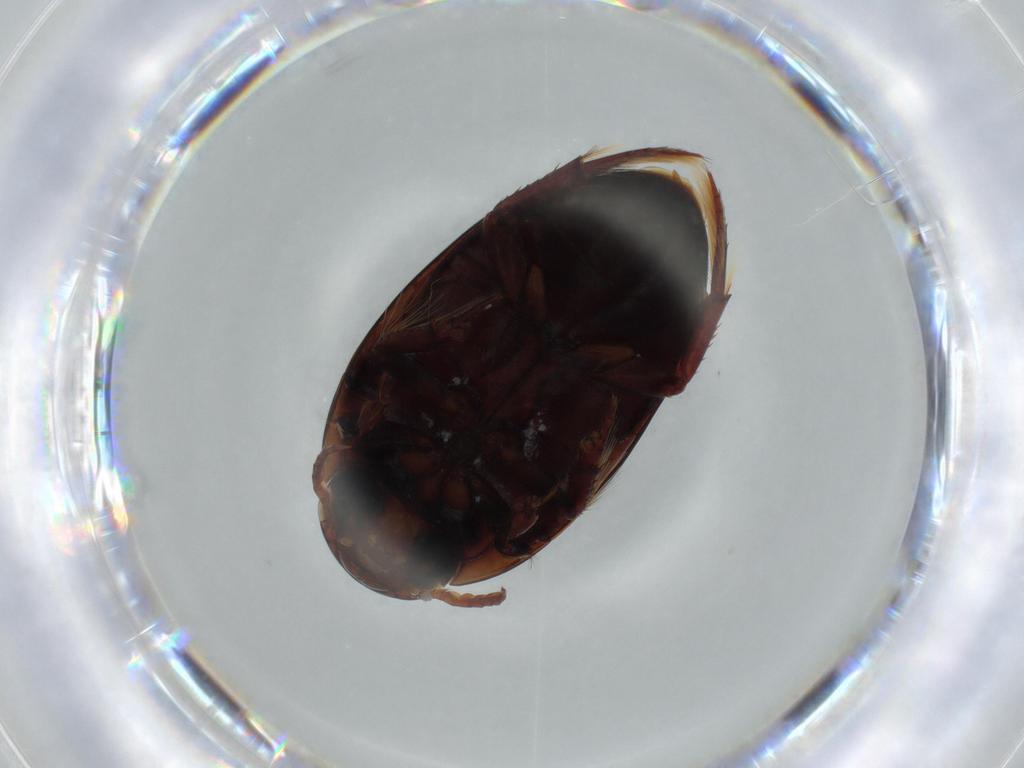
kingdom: Animalia
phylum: Arthropoda
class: Insecta
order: Coleoptera
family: Noteridae
